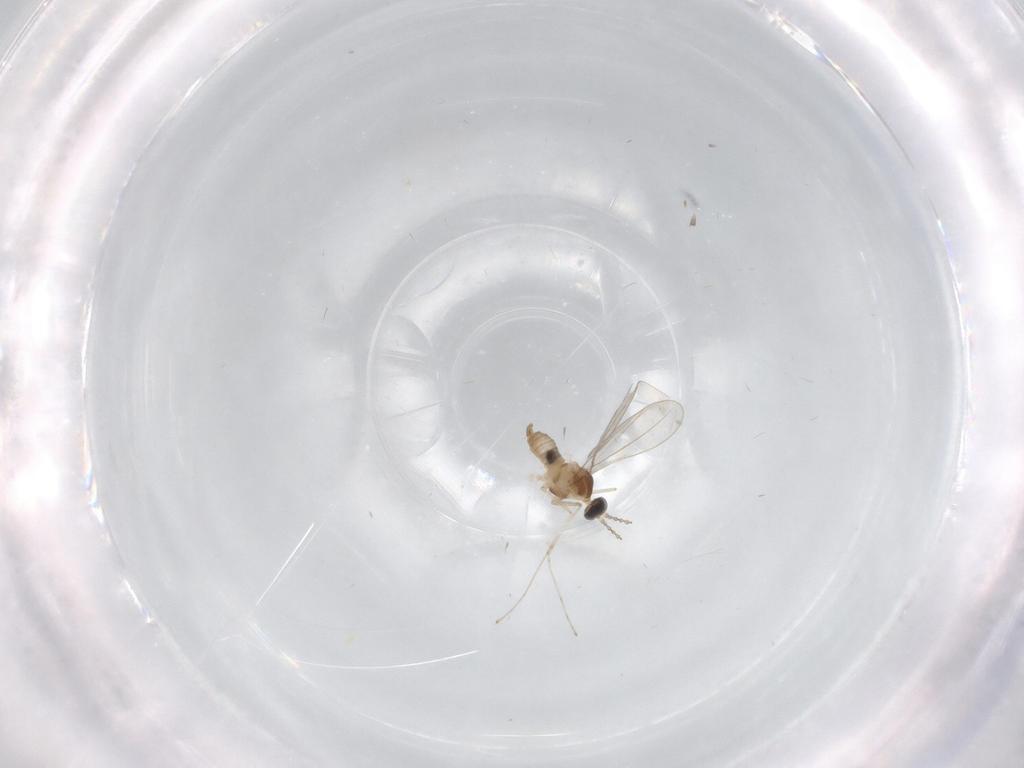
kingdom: Animalia
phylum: Arthropoda
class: Insecta
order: Diptera
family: Cecidomyiidae
